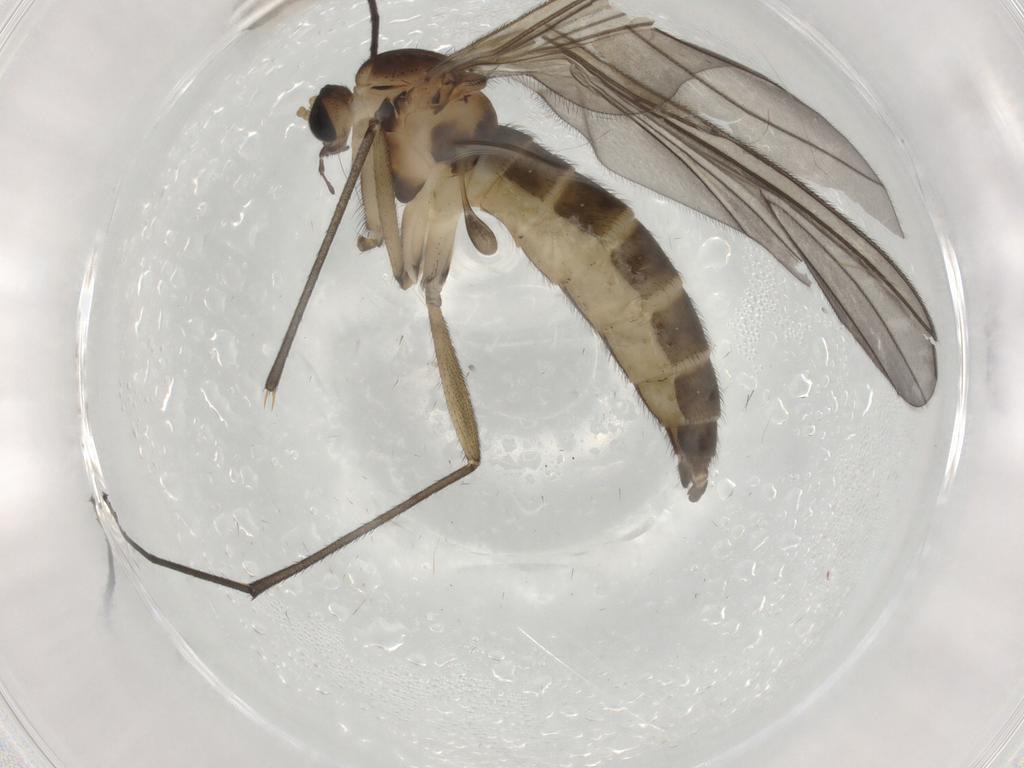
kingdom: Animalia
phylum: Arthropoda
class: Insecta
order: Diptera
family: Sciaridae
